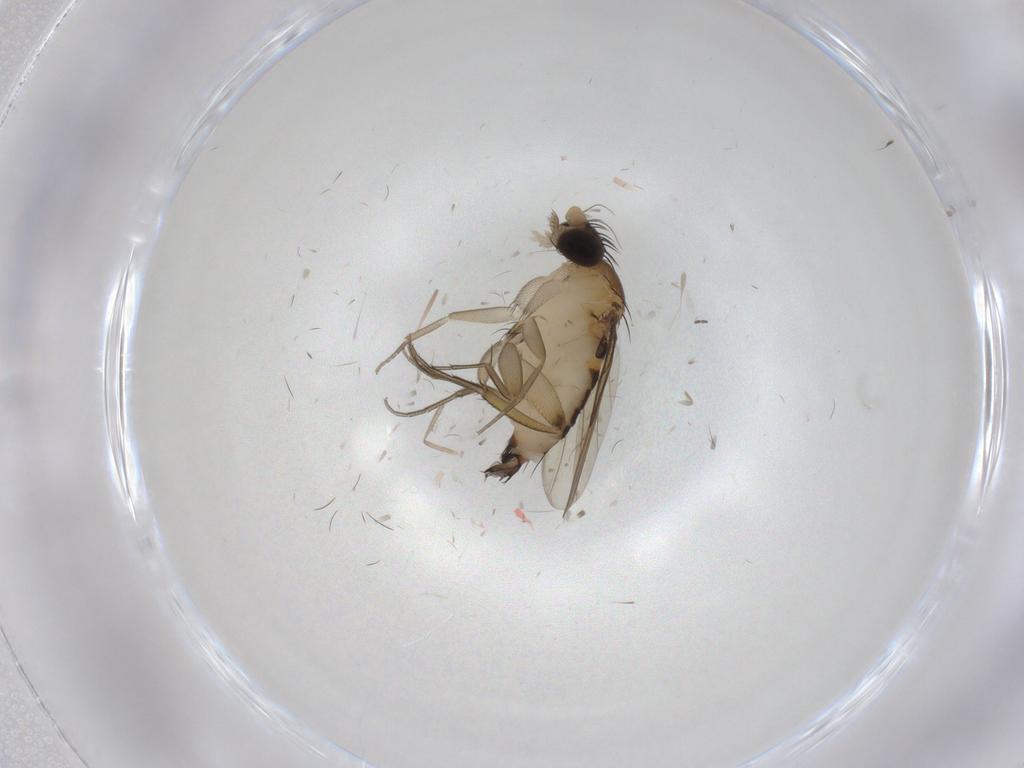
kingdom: Animalia
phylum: Arthropoda
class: Insecta
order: Diptera
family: Phoridae
